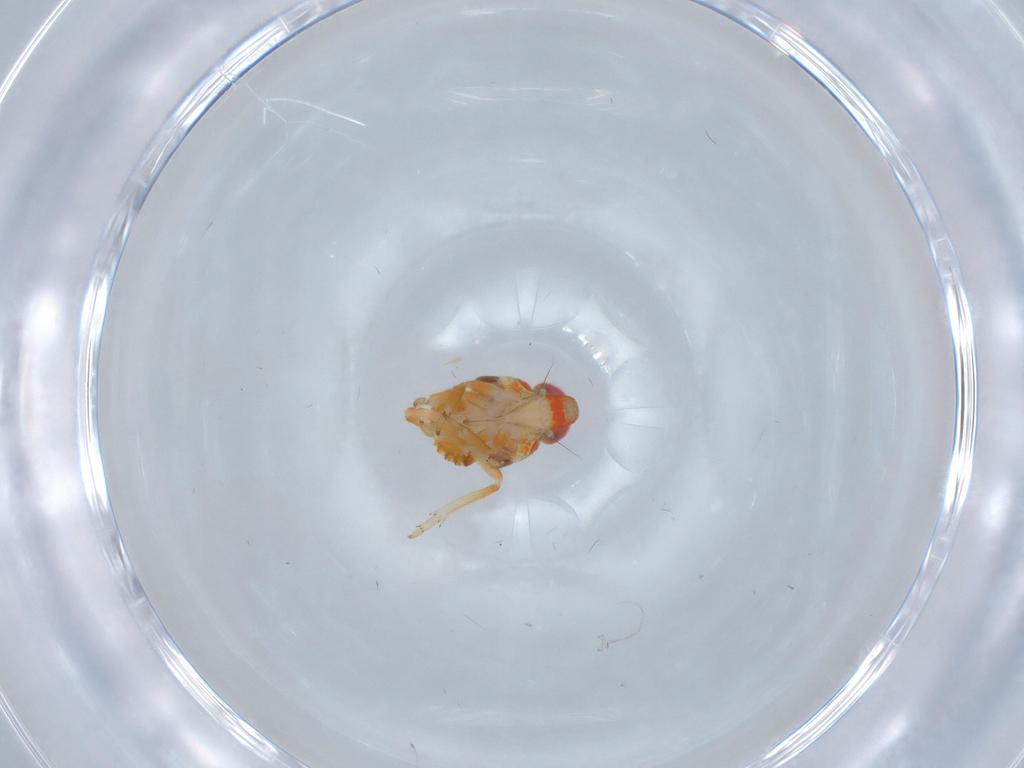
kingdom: Animalia
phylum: Arthropoda
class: Insecta
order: Hemiptera
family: Issidae
